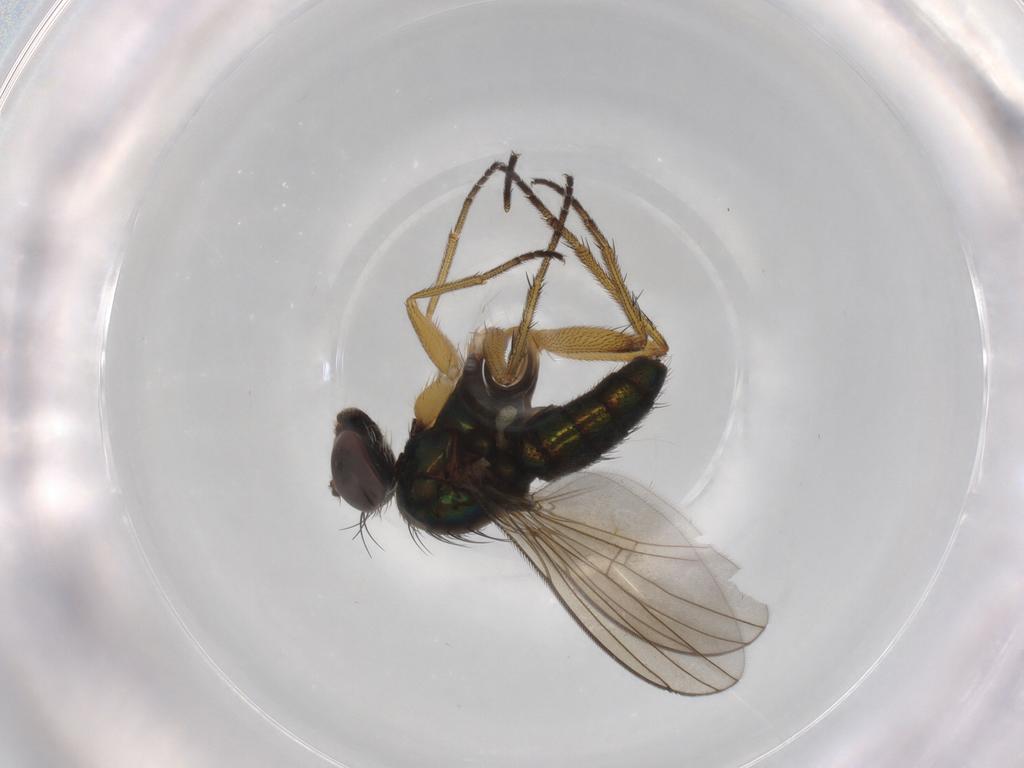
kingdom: Animalia
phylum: Arthropoda
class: Insecta
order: Diptera
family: Dolichopodidae
